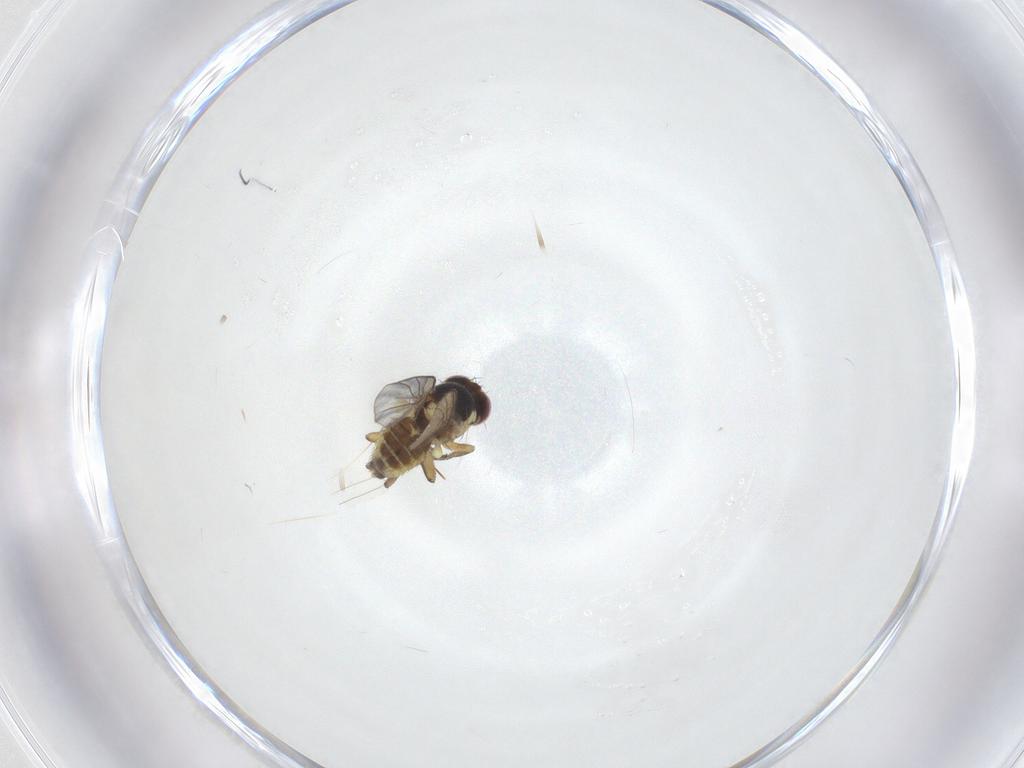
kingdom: Animalia
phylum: Arthropoda
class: Insecta
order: Diptera
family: Agromyzidae
